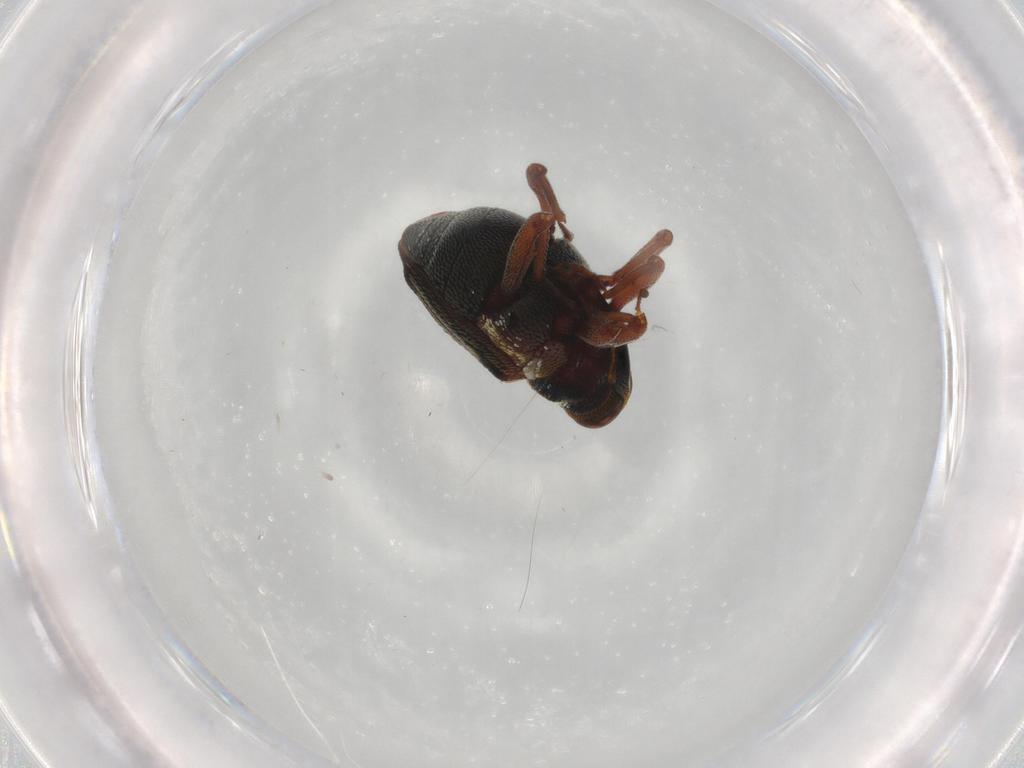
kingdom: Animalia
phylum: Arthropoda
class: Insecta
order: Coleoptera
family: Curculionidae
